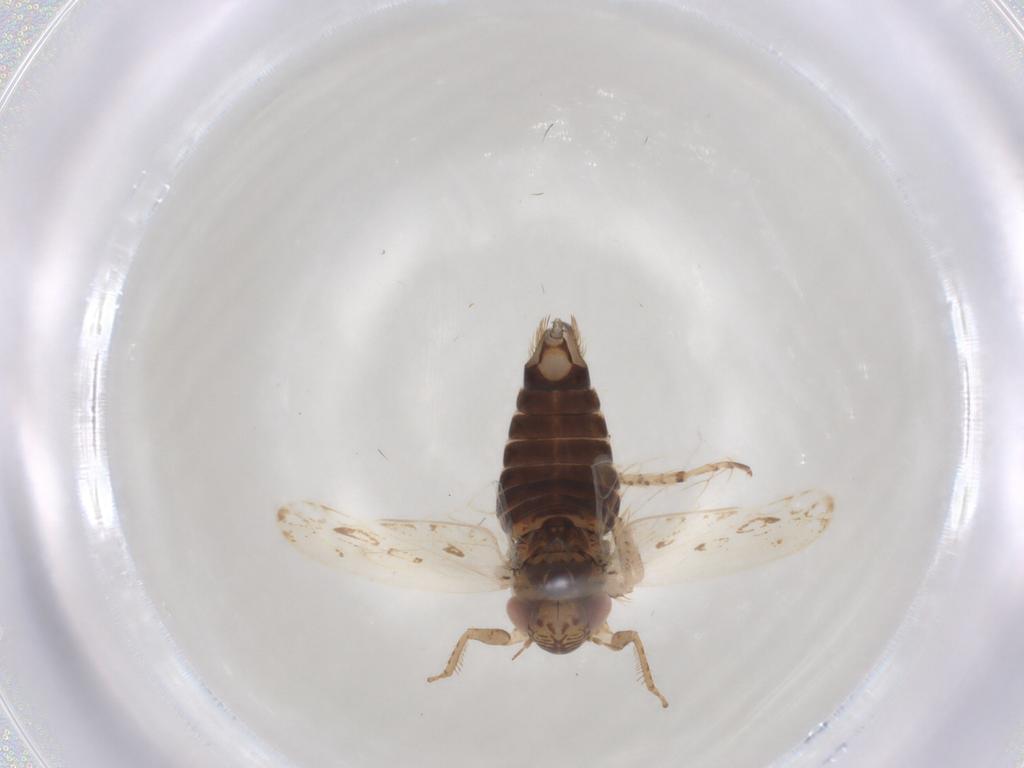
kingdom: Animalia
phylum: Arthropoda
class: Insecta
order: Hemiptera
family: Cicadellidae
